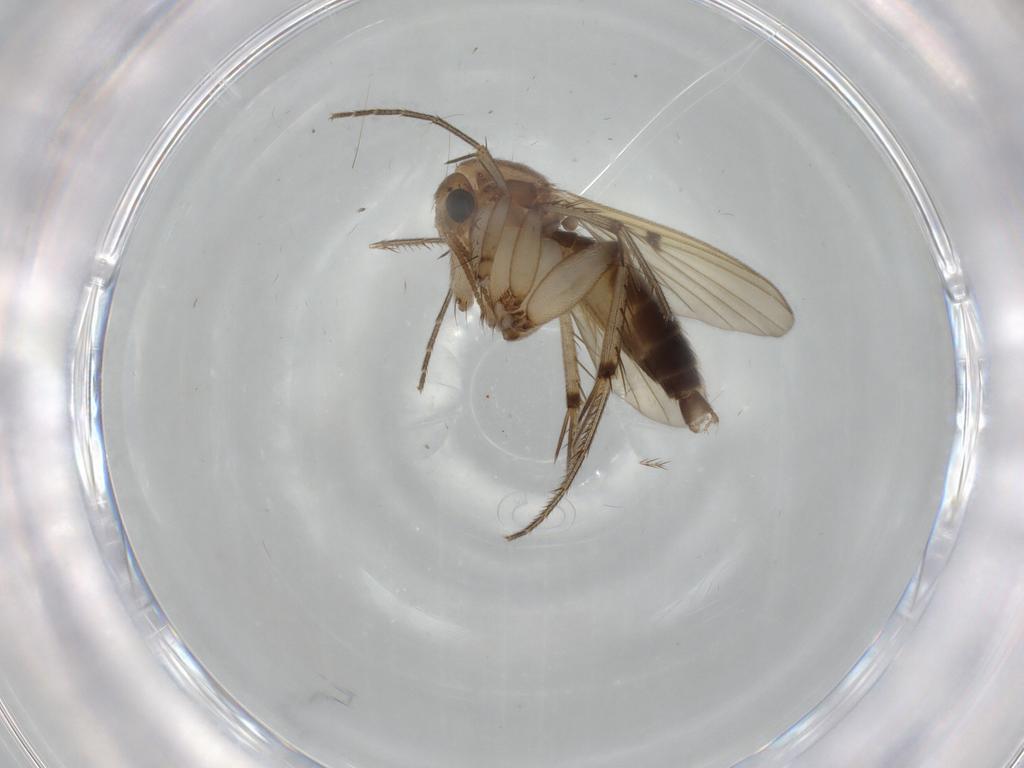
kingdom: Animalia
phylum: Arthropoda
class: Insecta
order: Diptera
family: Mycetophilidae
